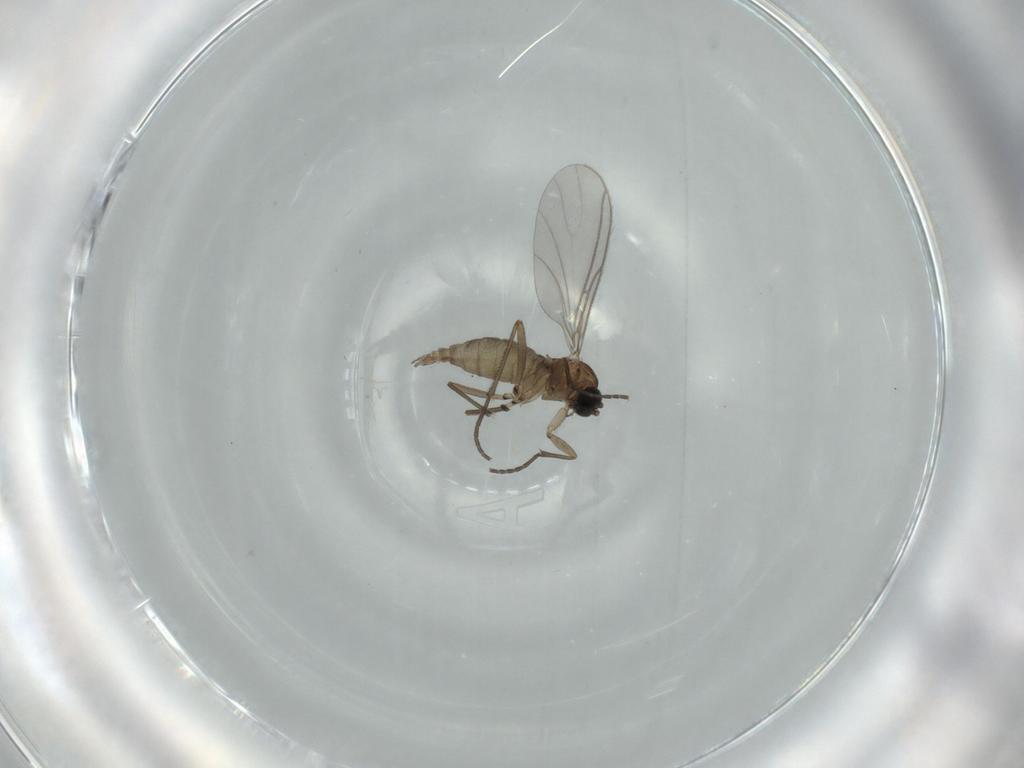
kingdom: Animalia
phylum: Arthropoda
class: Insecta
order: Diptera
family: Sciaridae
